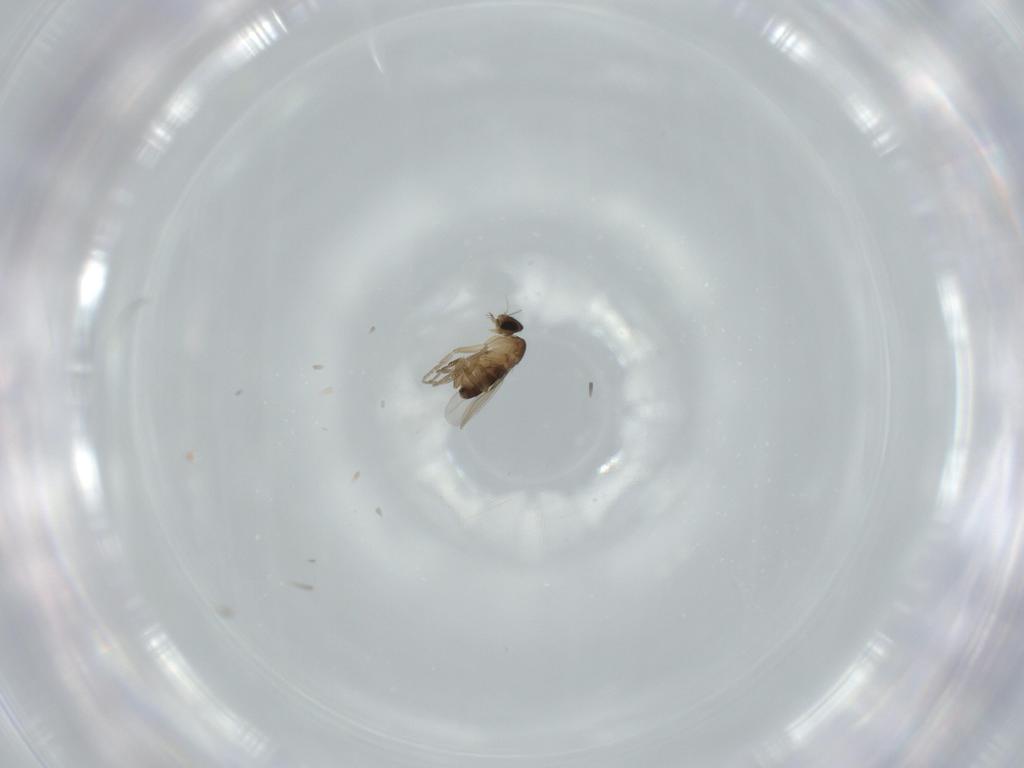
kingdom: Animalia
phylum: Arthropoda
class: Insecta
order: Diptera
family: Phoridae
